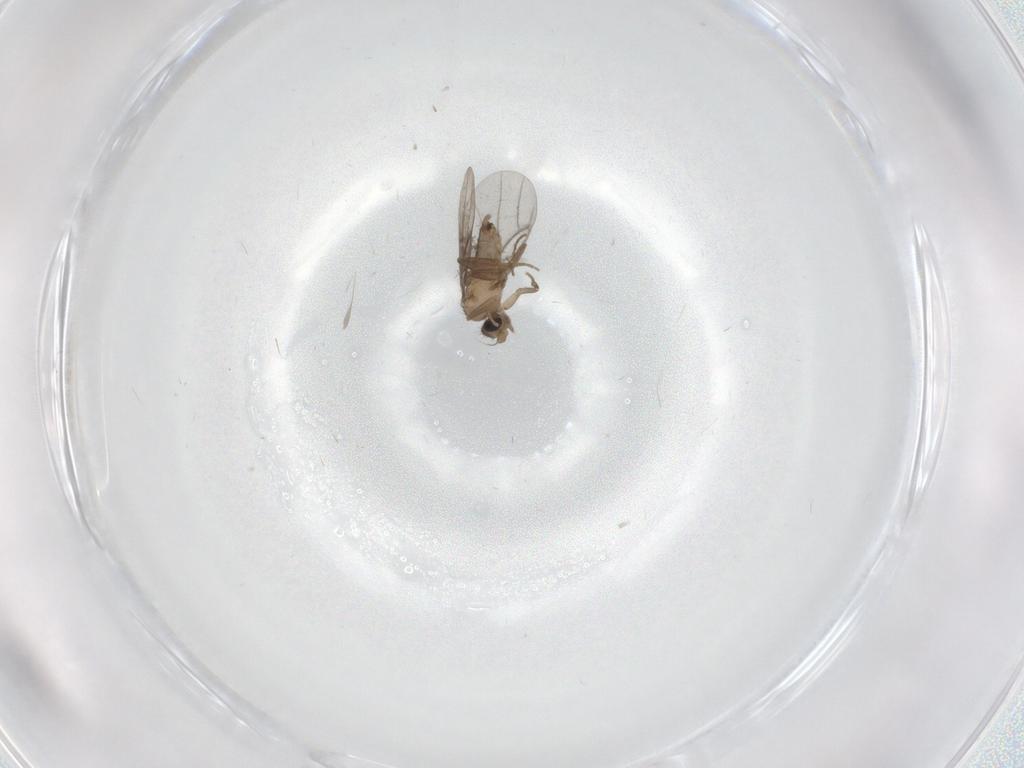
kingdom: Animalia
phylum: Arthropoda
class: Insecta
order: Diptera
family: Sciaridae
